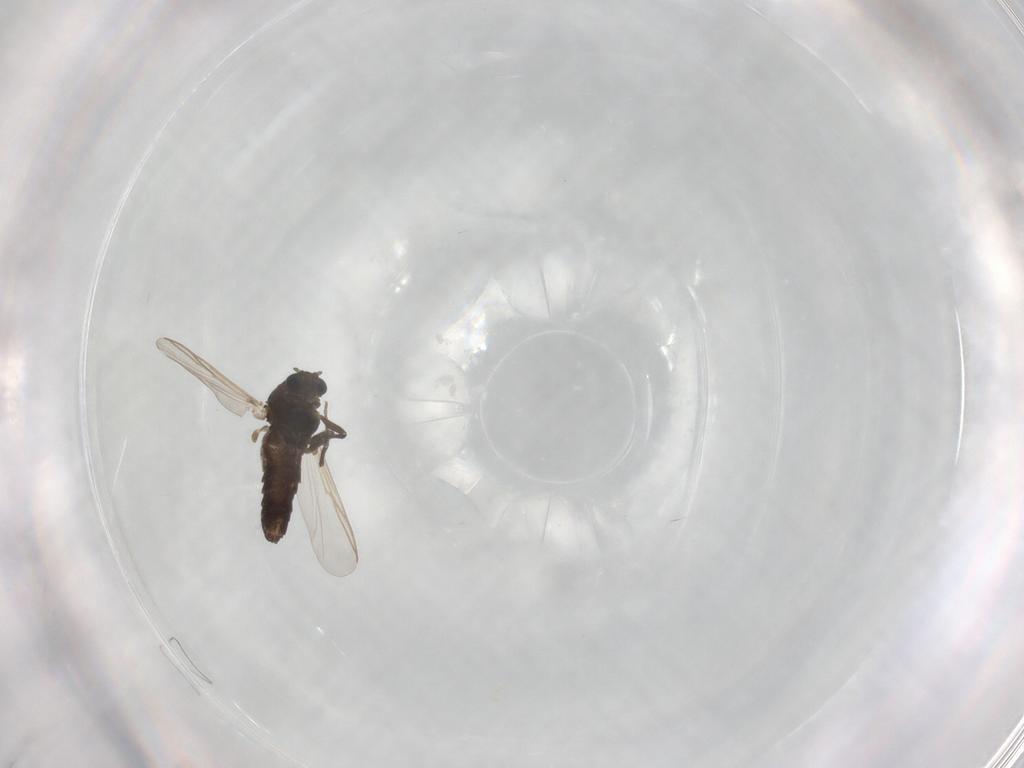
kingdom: Animalia
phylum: Arthropoda
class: Insecta
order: Diptera
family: Chironomidae
